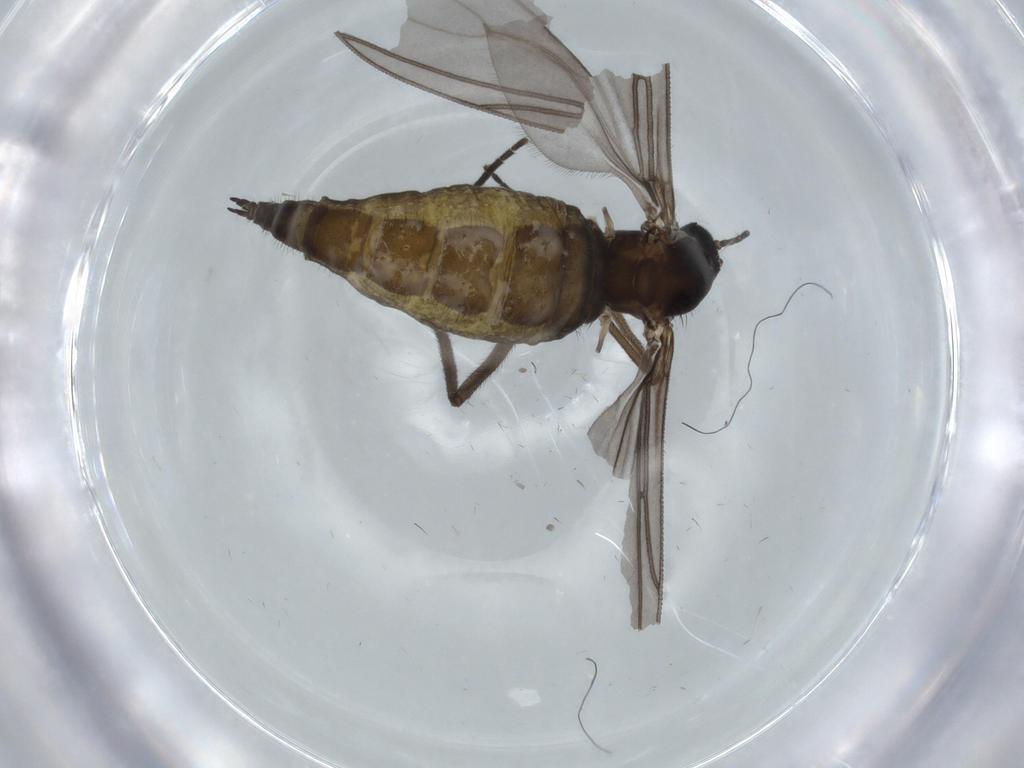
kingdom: Animalia
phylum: Arthropoda
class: Insecta
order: Diptera
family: Sciaridae
